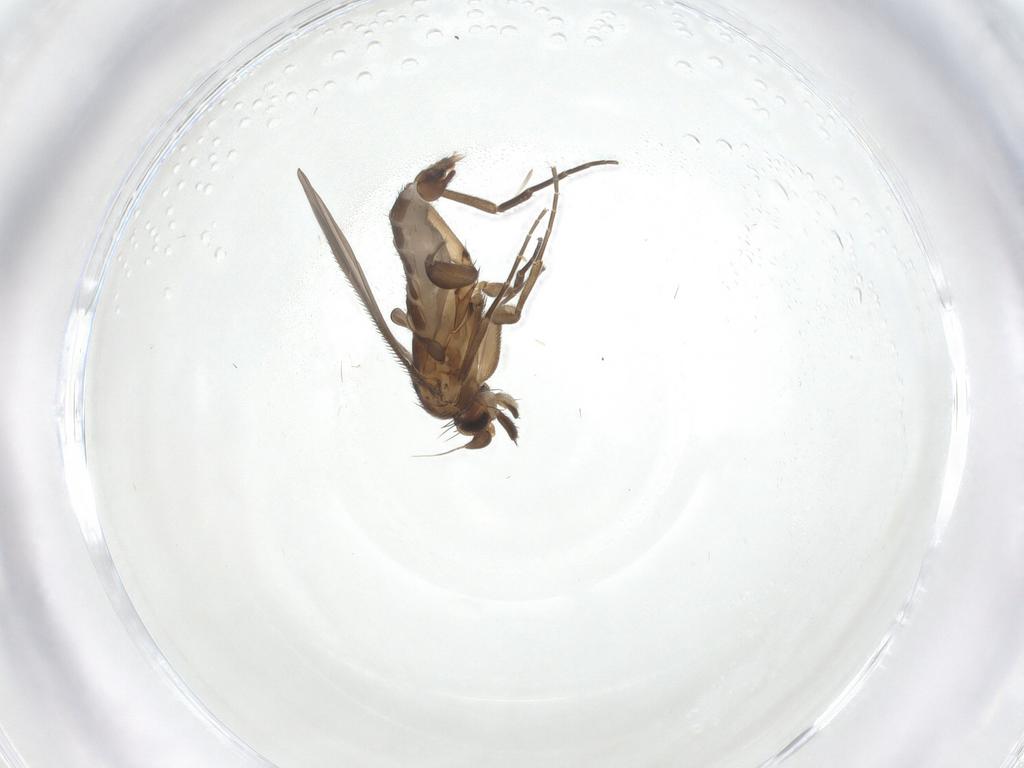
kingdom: Animalia
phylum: Arthropoda
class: Insecta
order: Diptera
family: Phoridae
